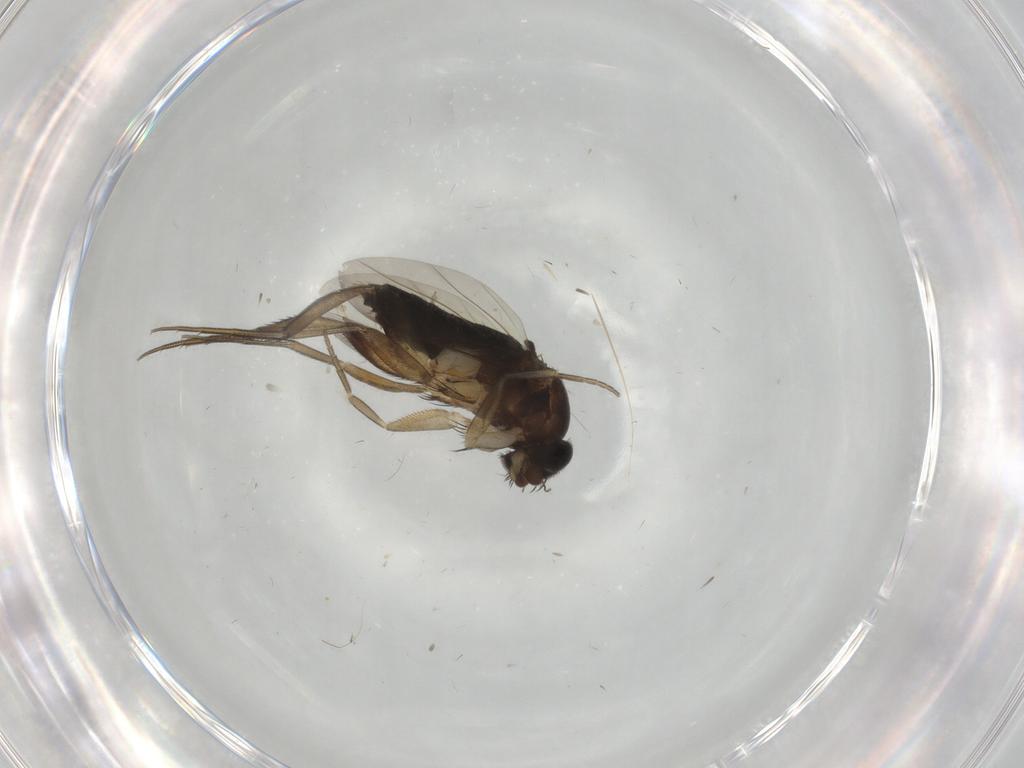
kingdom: Animalia
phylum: Arthropoda
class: Insecta
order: Diptera
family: Phoridae
